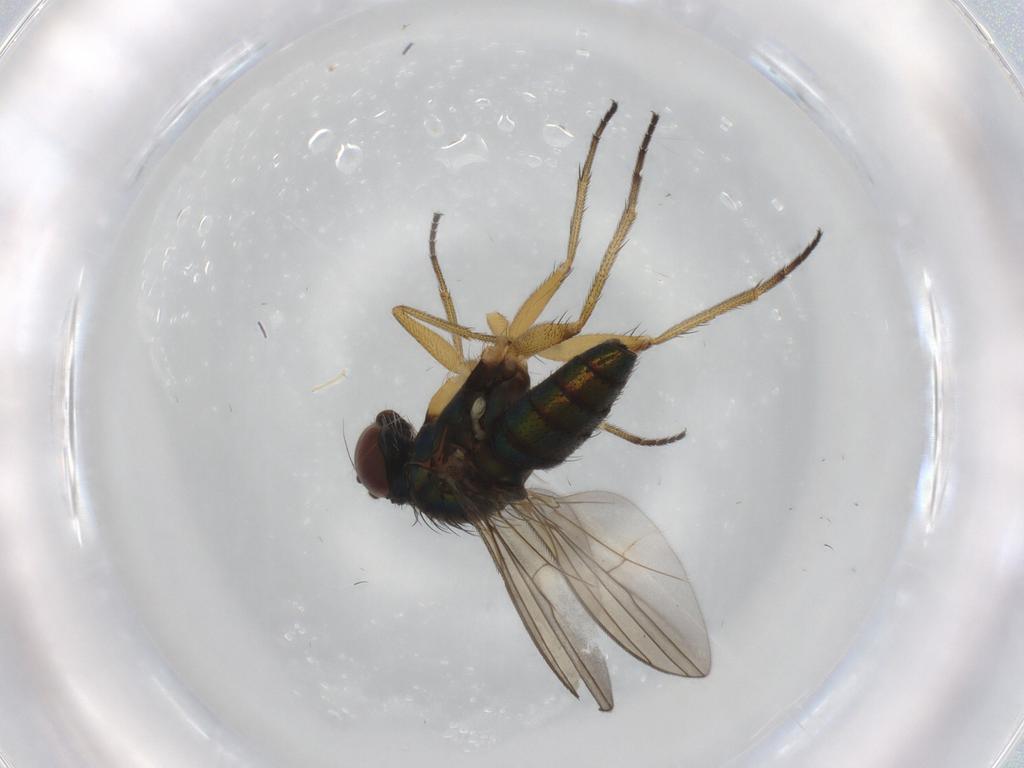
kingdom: Animalia
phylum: Arthropoda
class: Insecta
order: Diptera
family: Dolichopodidae
